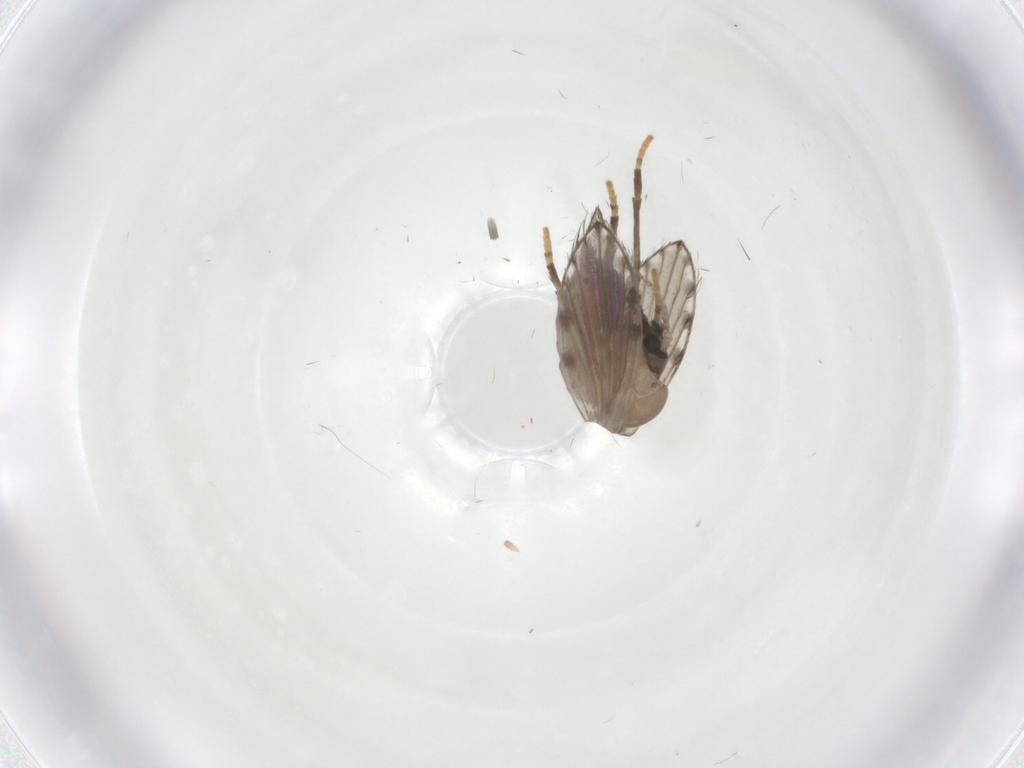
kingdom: Animalia
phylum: Arthropoda
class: Insecta
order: Diptera
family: Psychodidae
